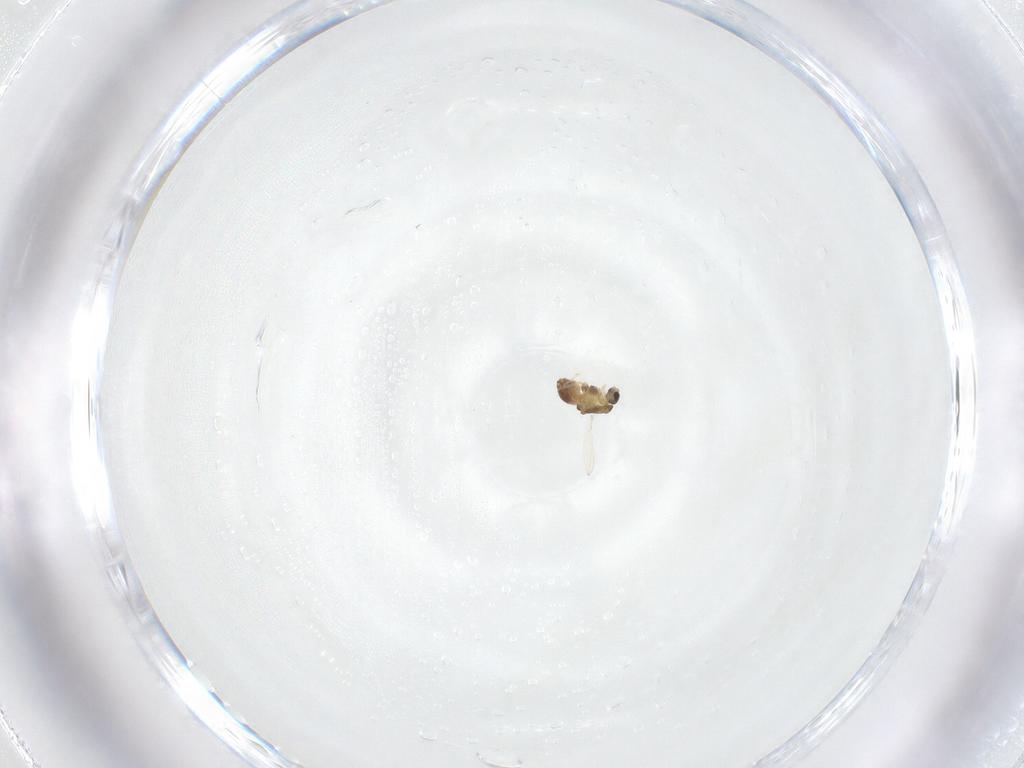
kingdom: Animalia
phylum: Arthropoda
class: Insecta
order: Diptera
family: Chironomidae
